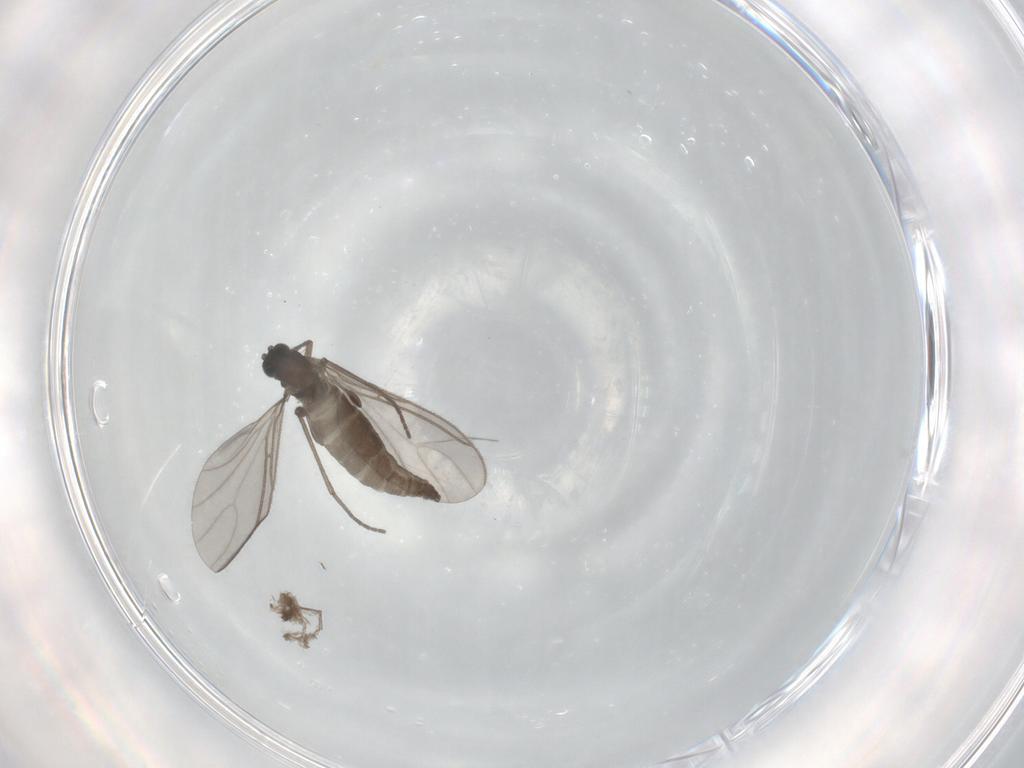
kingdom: Animalia
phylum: Arthropoda
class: Insecta
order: Diptera
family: Sciaridae
